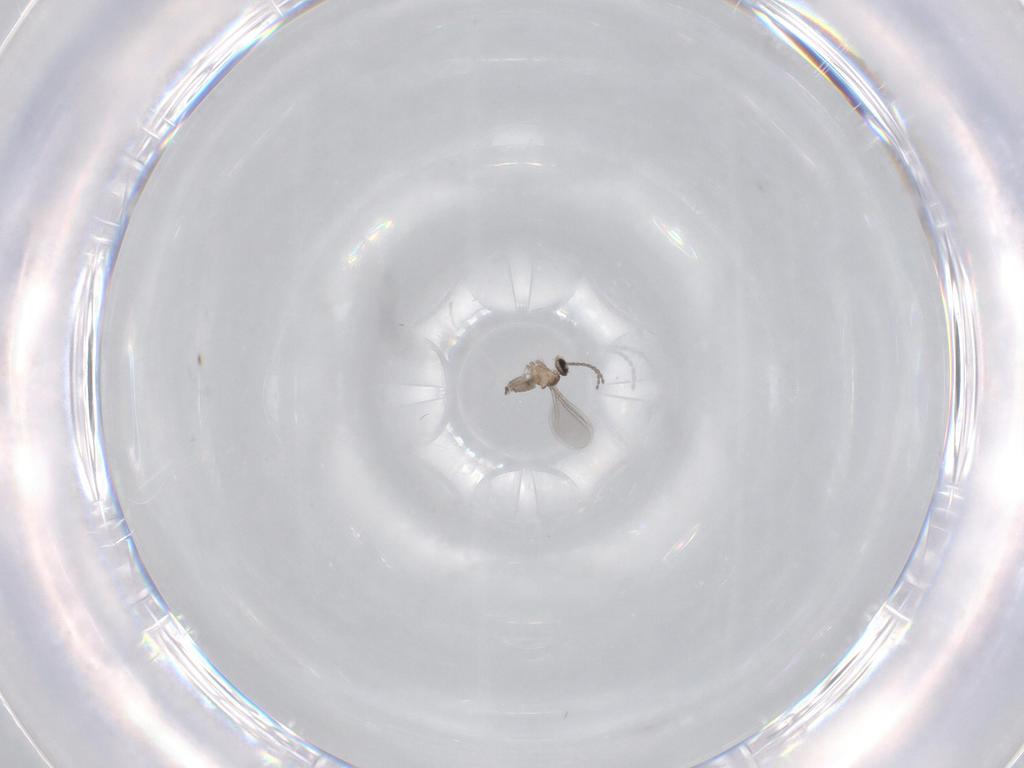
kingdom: Animalia
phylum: Arthropoda
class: Insecta
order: Diptera
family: Cecidomyiidae
